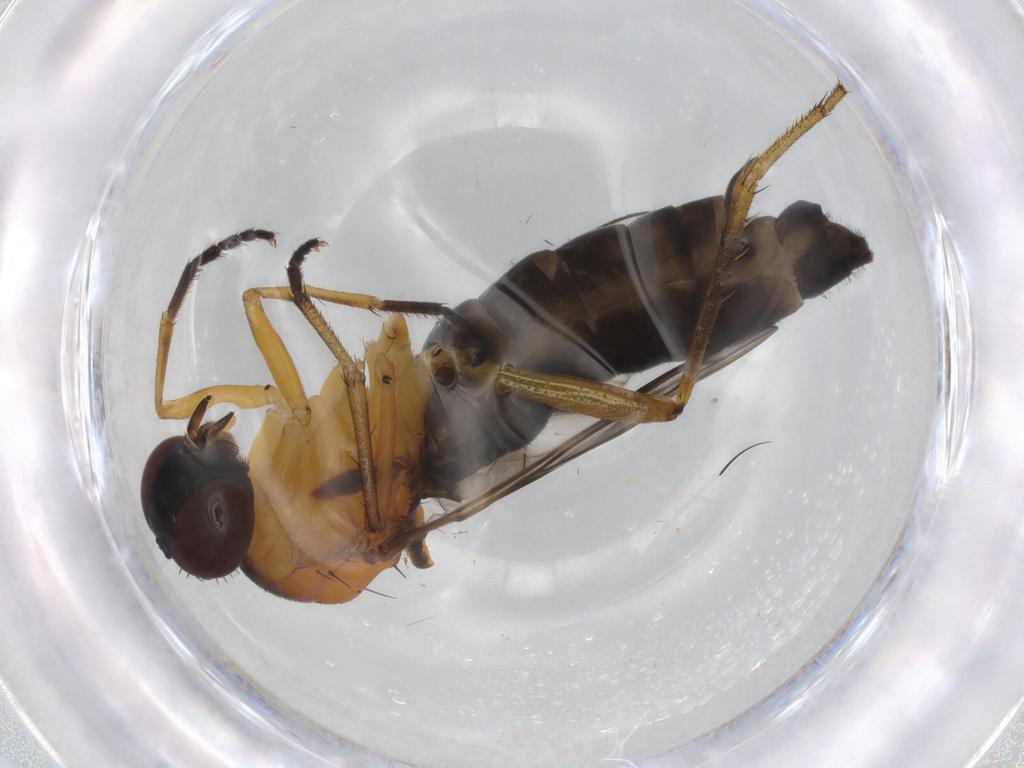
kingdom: Animalia
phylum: Arthropoda
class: Insecta
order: Diptera
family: Therevidae
